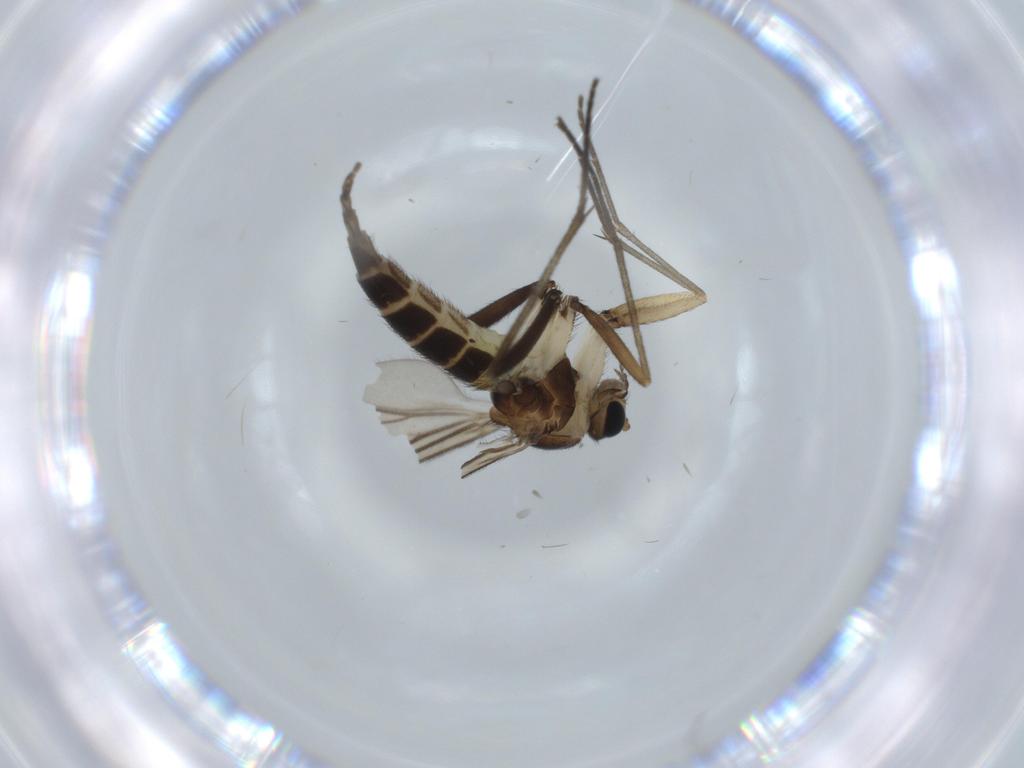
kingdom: Animalia
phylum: Arthropoda
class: Insecta
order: Diptera
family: Sciaridae
